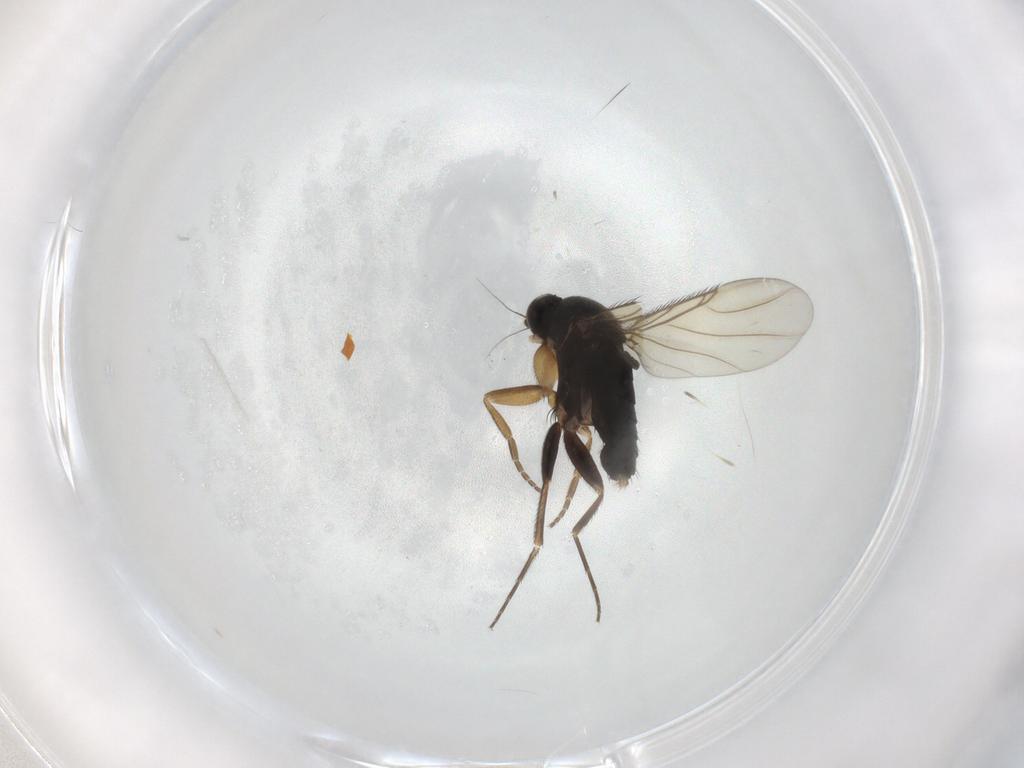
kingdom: Animalia
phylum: Arthropoda
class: Insecta
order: Diptera
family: Phoridae
